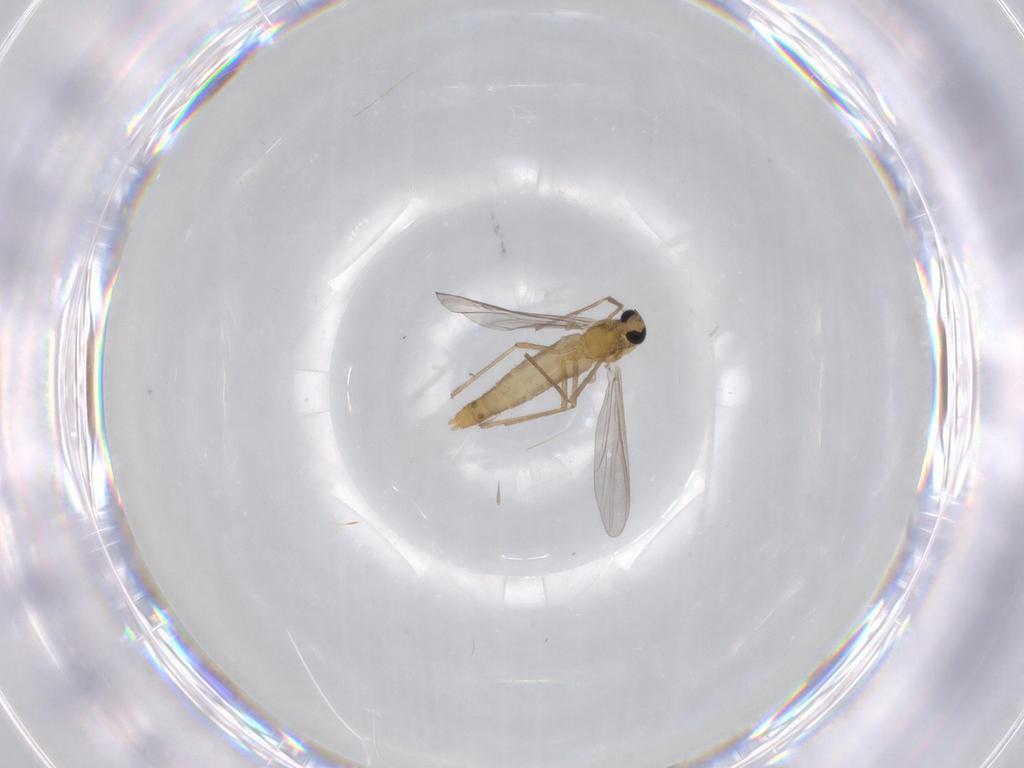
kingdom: Animalia
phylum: Arthropoda
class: Insecta
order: Diptera
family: Chironomidae
